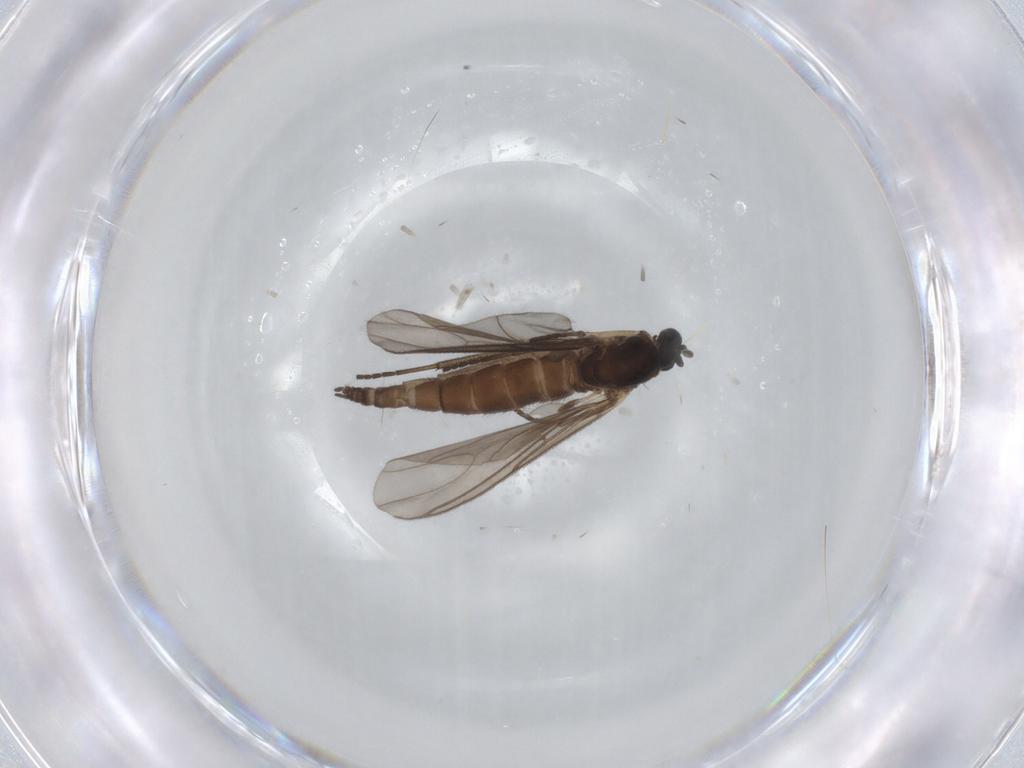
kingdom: Animalia
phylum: Arthropoda
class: Insecta
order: Diptera
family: Sciaridae
